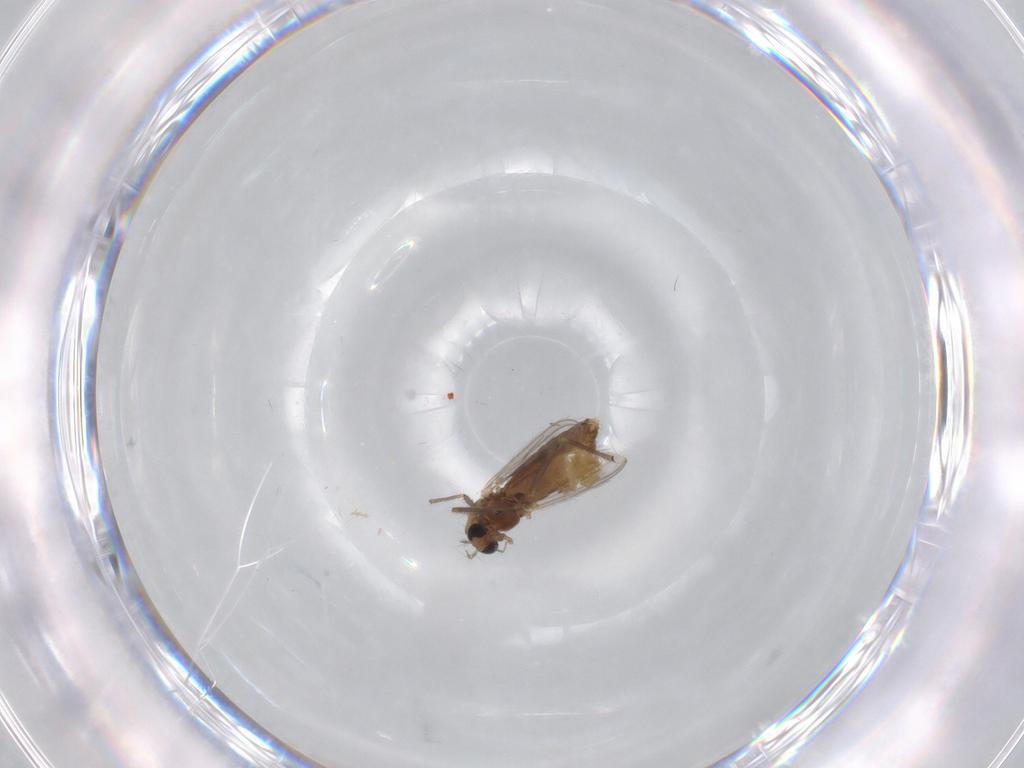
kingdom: Animalia
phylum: Arthropoda
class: Insecta
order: Diptera
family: Chironomidae
